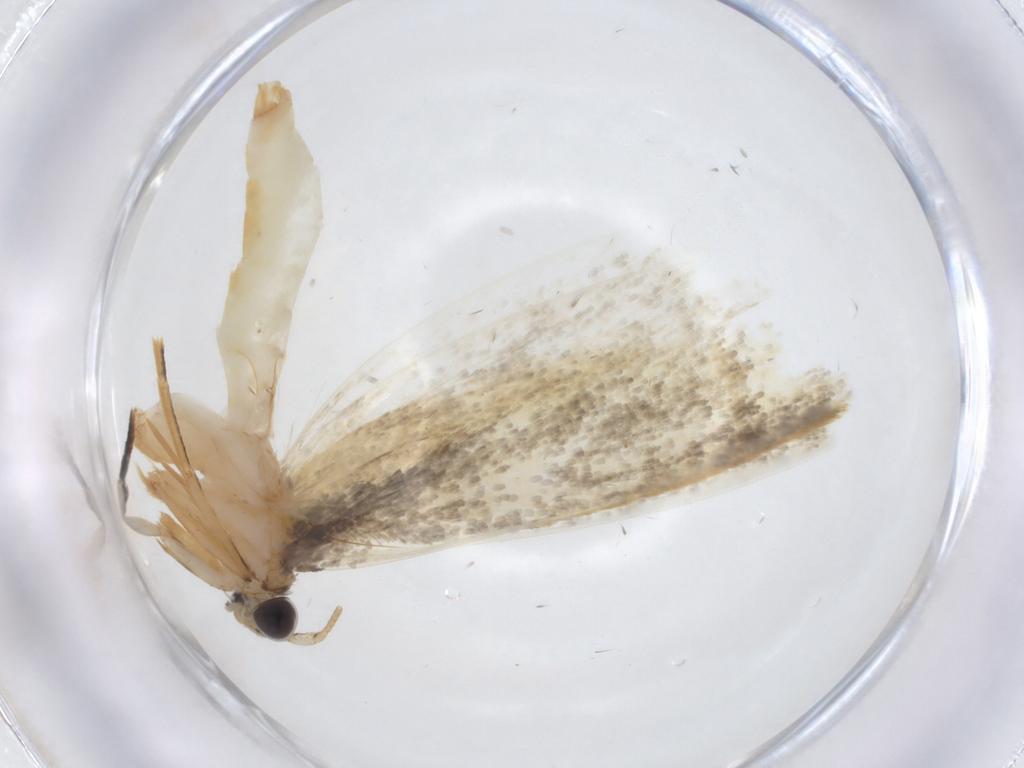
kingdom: Animalia
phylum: Arthropoda
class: Insecta
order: Lepidoptera
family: Tineidae
